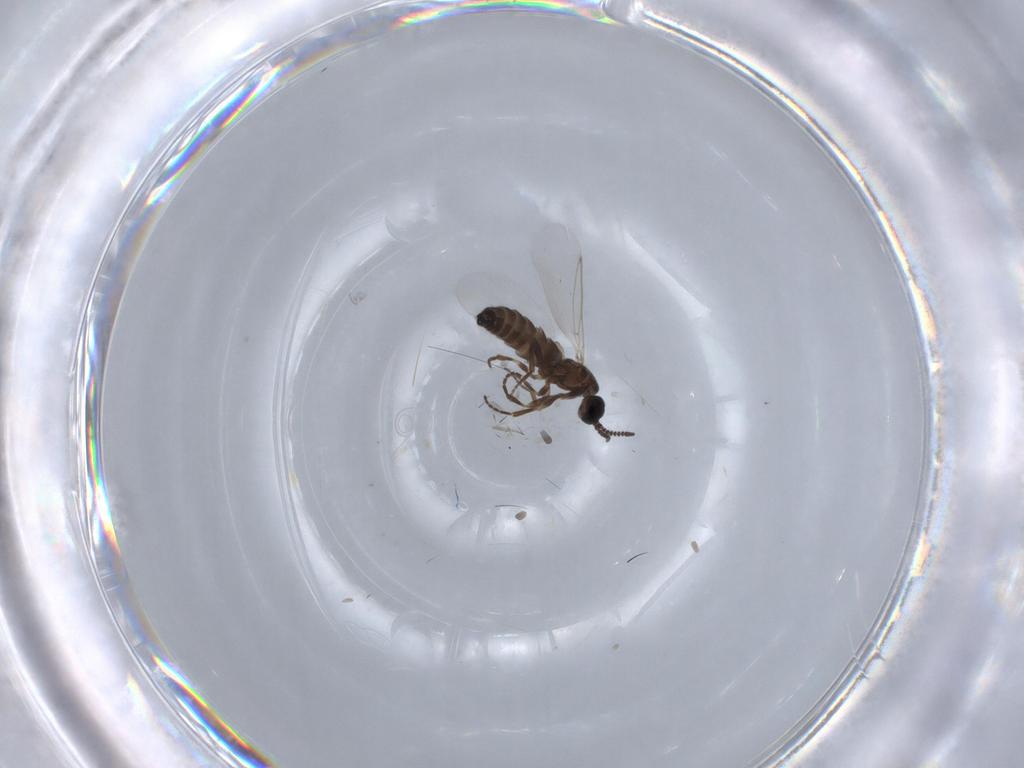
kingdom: Animalia
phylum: Arthropoda
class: Insecta
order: Diptera
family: Scatopsidae
